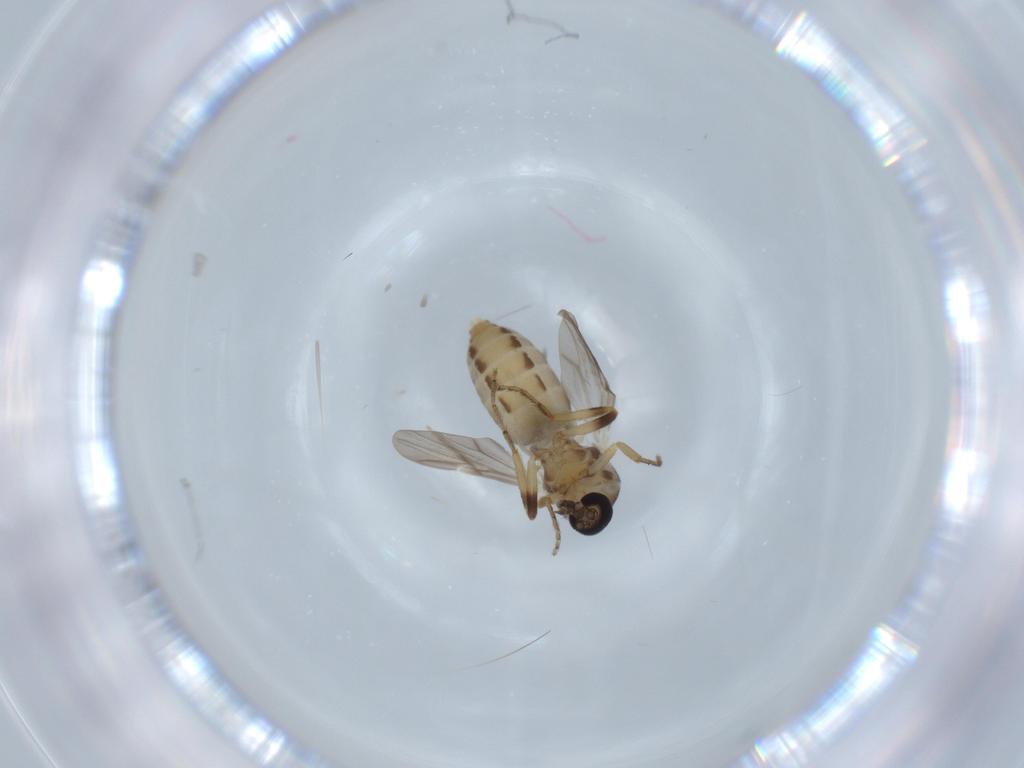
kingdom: Animalia
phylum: Arthropoda
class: Insecta
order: Diptera
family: Ceratopogonidae
